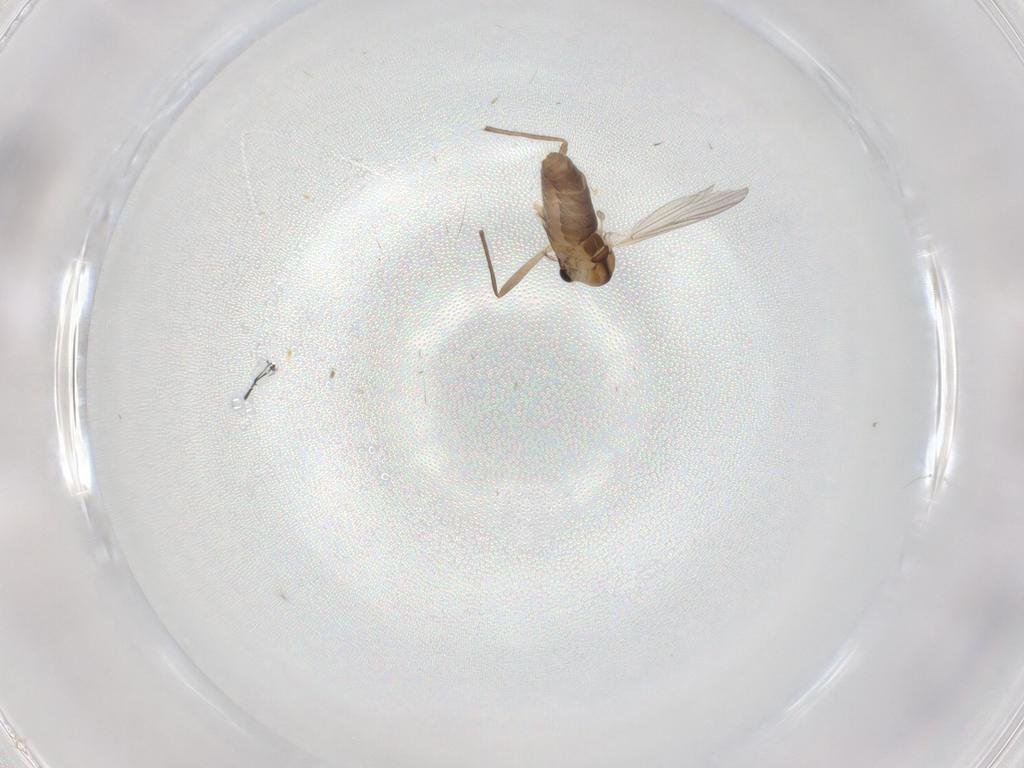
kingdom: Animalia
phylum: Arthropoda
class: Insecta
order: Diptera
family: Chironomidae
